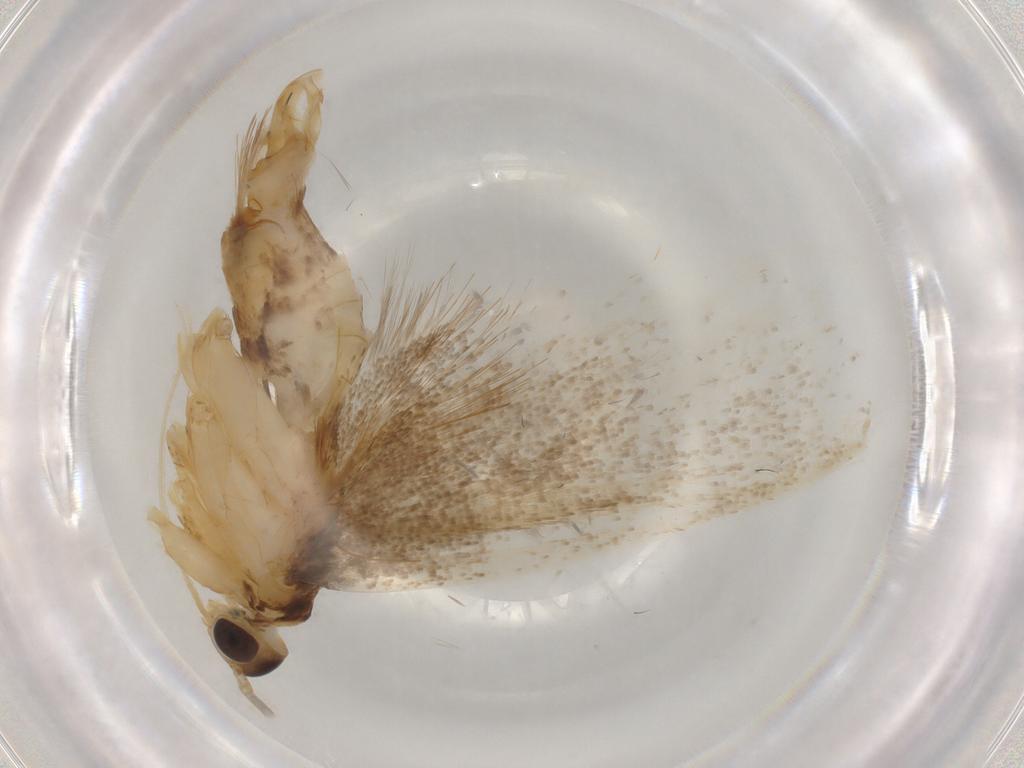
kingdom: Animalia
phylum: Arthropoda
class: Insecta
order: Lepidoptera
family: Lecithoceridae
